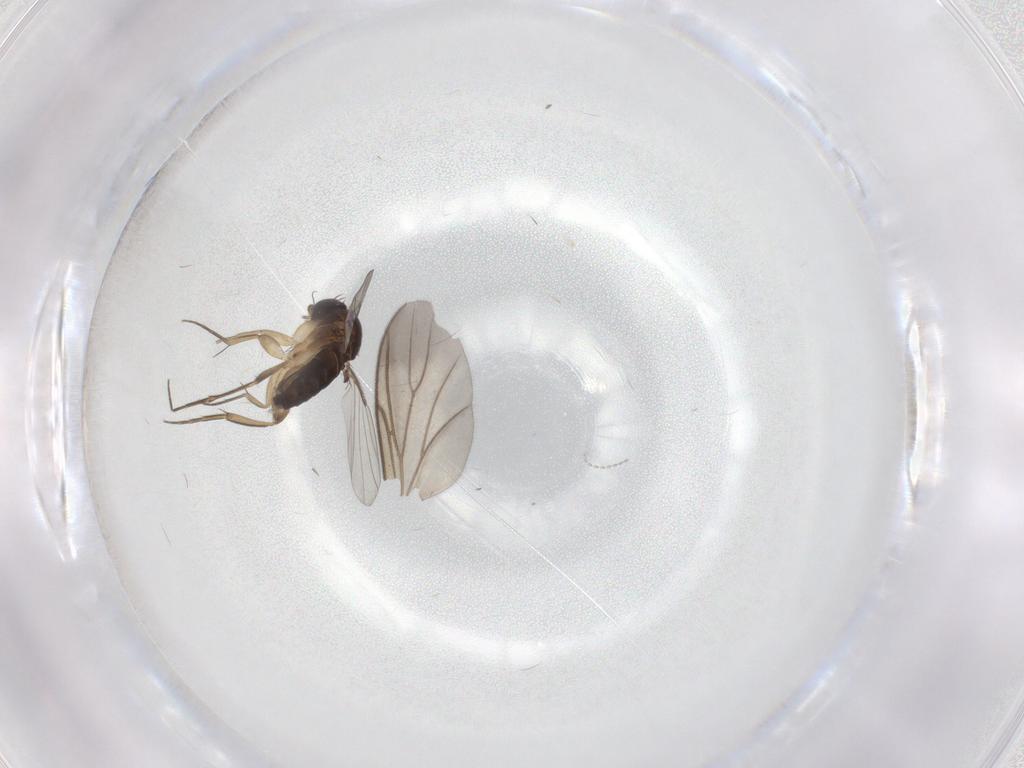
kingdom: Animalia
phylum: Arthropoda
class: Insecta
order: Diptera
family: Phoridae
